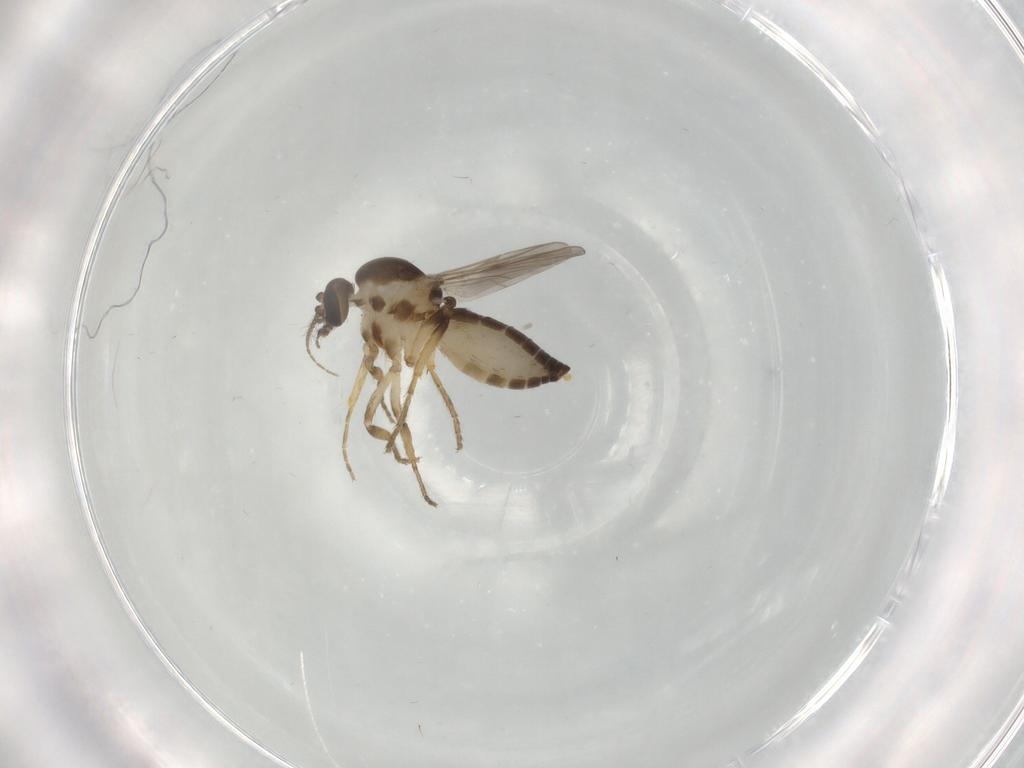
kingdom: Animalia
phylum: Arthropoda
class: Insecta
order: Diptera
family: Ceratopogonidae
